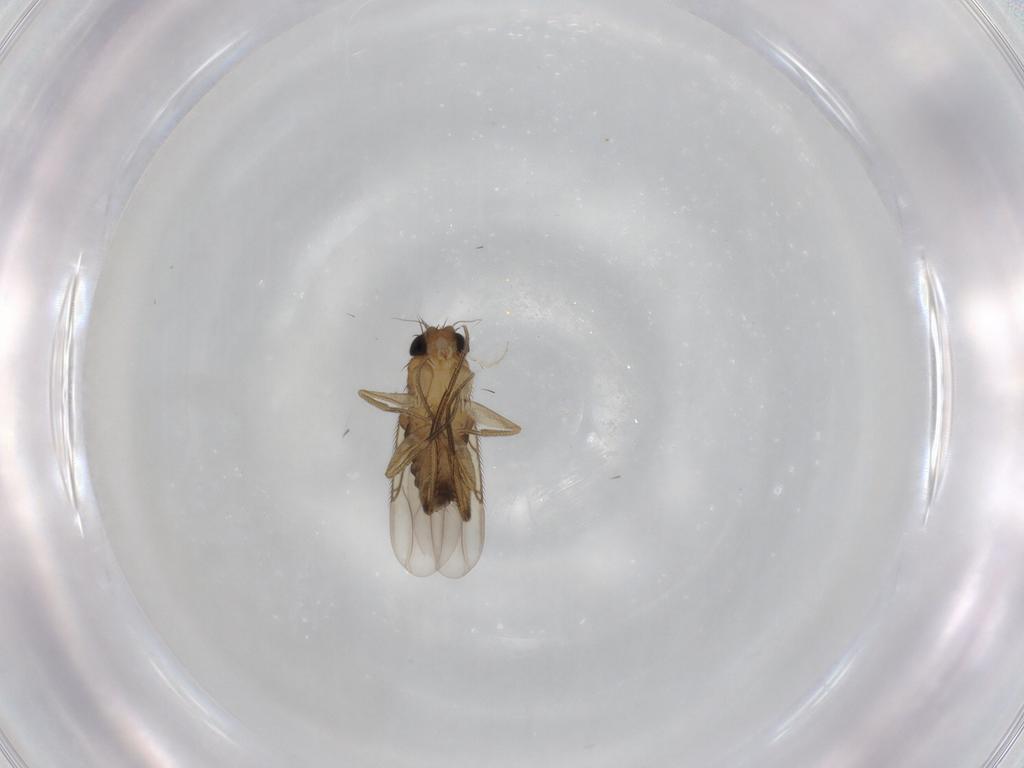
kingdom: Animalia
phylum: Arthropoda
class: Insecta
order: Diptera
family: Phoridae
